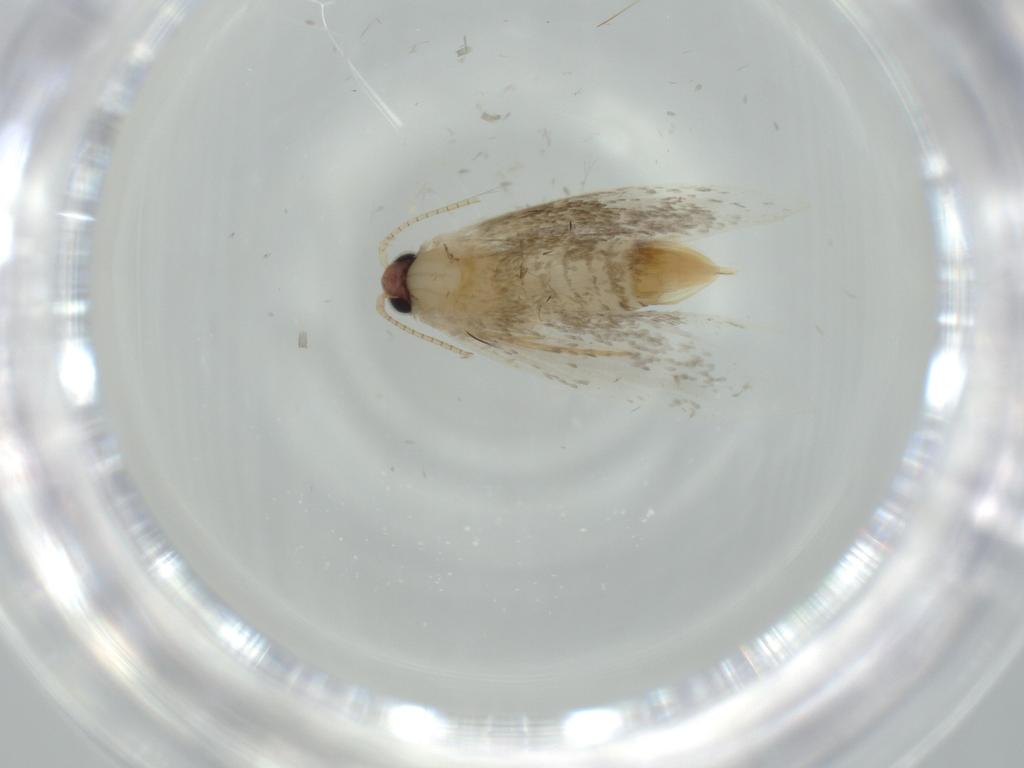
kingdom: Animalia
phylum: Arthropoda
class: Insecta
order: Lepidoptera
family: Tineidae
